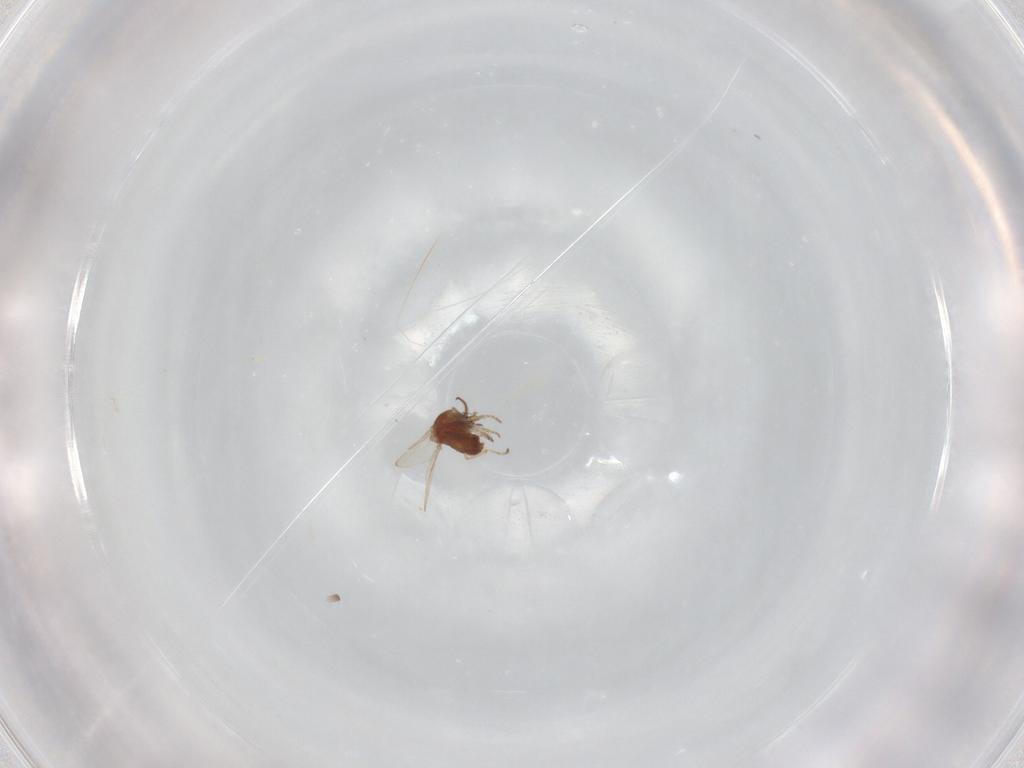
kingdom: Animalia
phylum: Arthropoda
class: Insecta
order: Diptera
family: Ceratopogonidae
